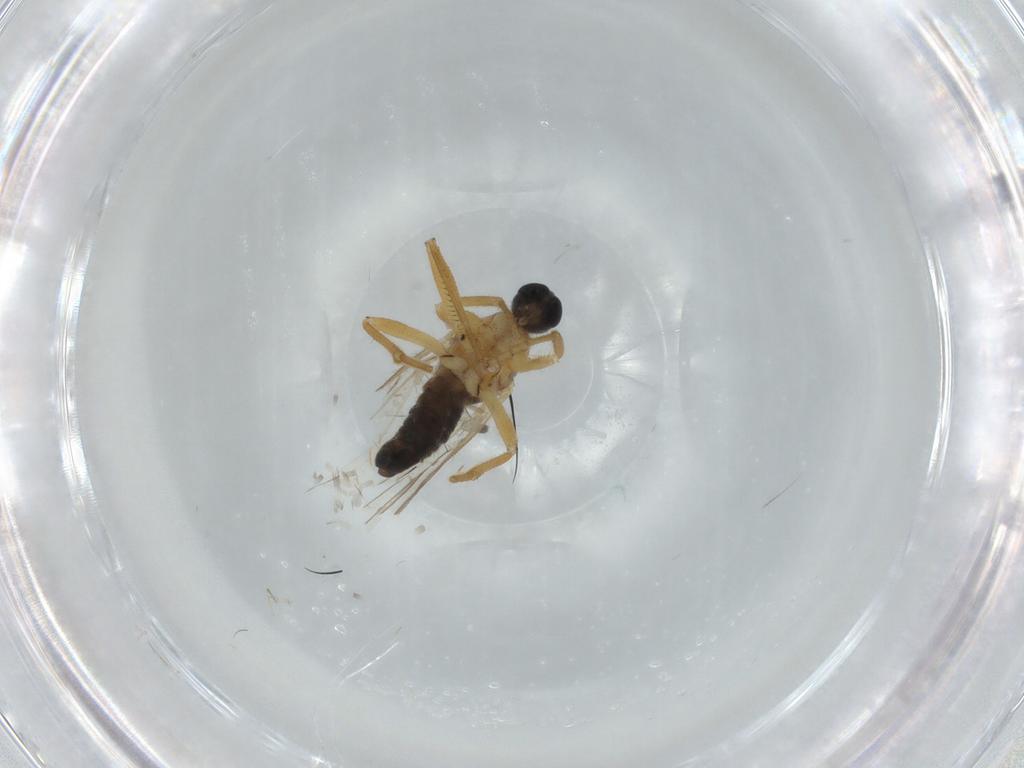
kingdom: Animalia
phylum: Arthropoda
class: Insecta
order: Diptera
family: Hybotidae
